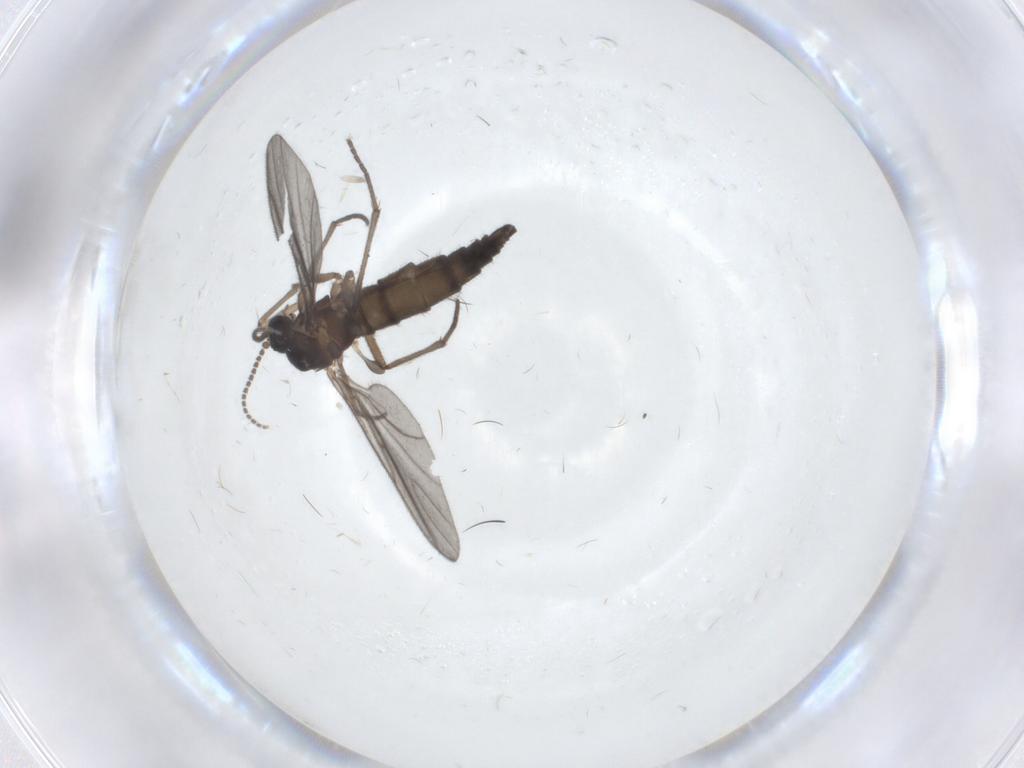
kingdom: Animalia
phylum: Arthropoda
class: Insecta
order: Diptera
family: Sciaridae
